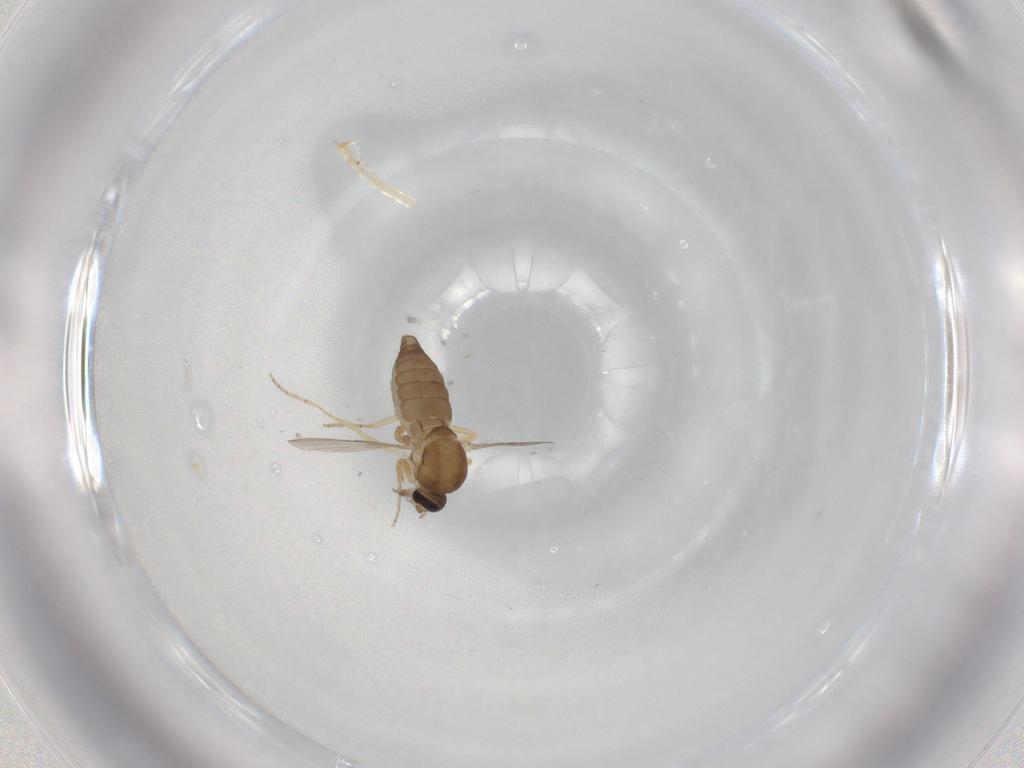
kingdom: Animalia
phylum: Arthropoda
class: Insecta
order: Diptera
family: Ceratopogonidae
